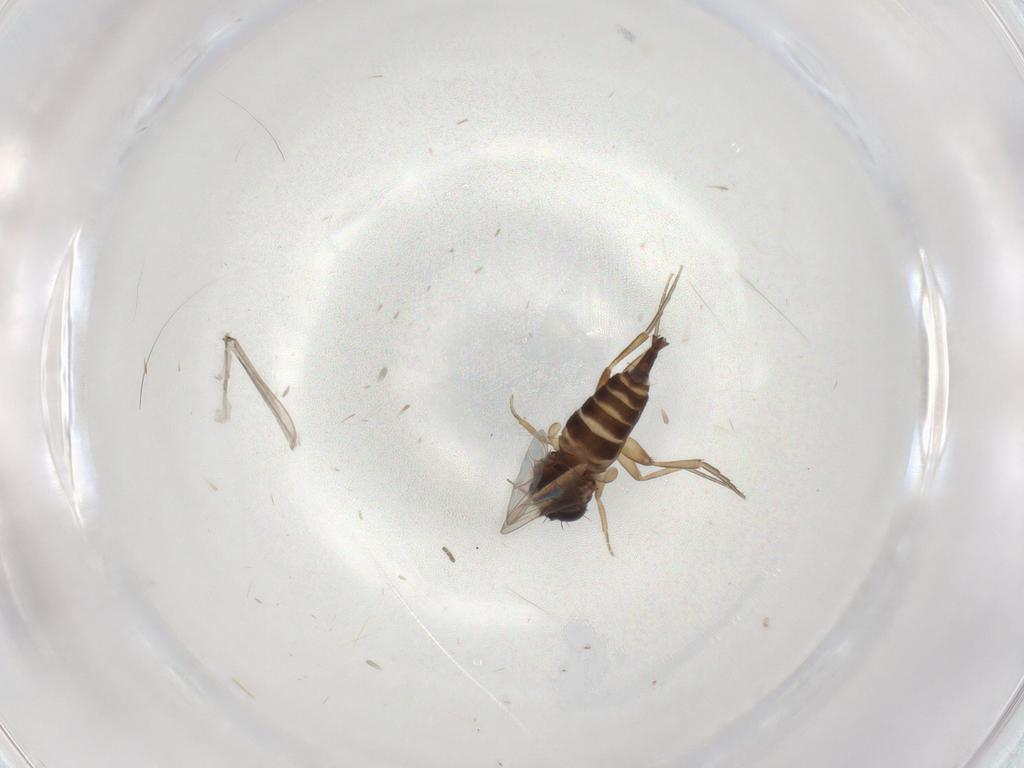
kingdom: Animalia
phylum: Arthropoda
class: Insecta
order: Diptera
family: Phoridae
